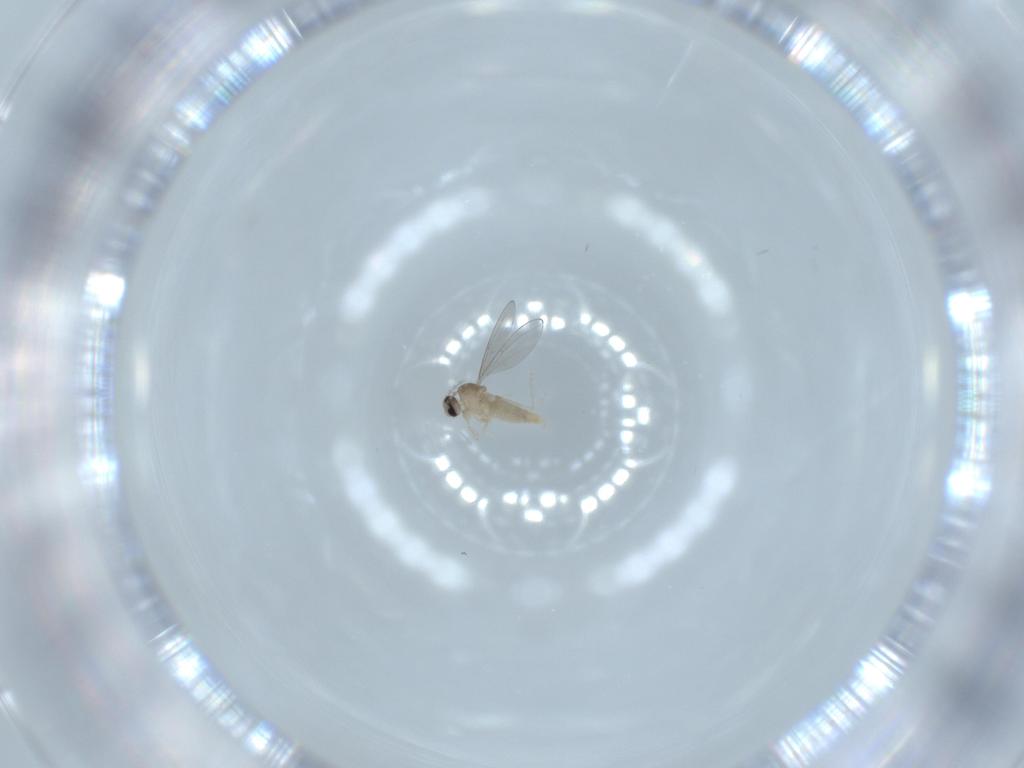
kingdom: Animalia
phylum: Arthropoda
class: Insecta
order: Diptera
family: Cecidomyiidae
